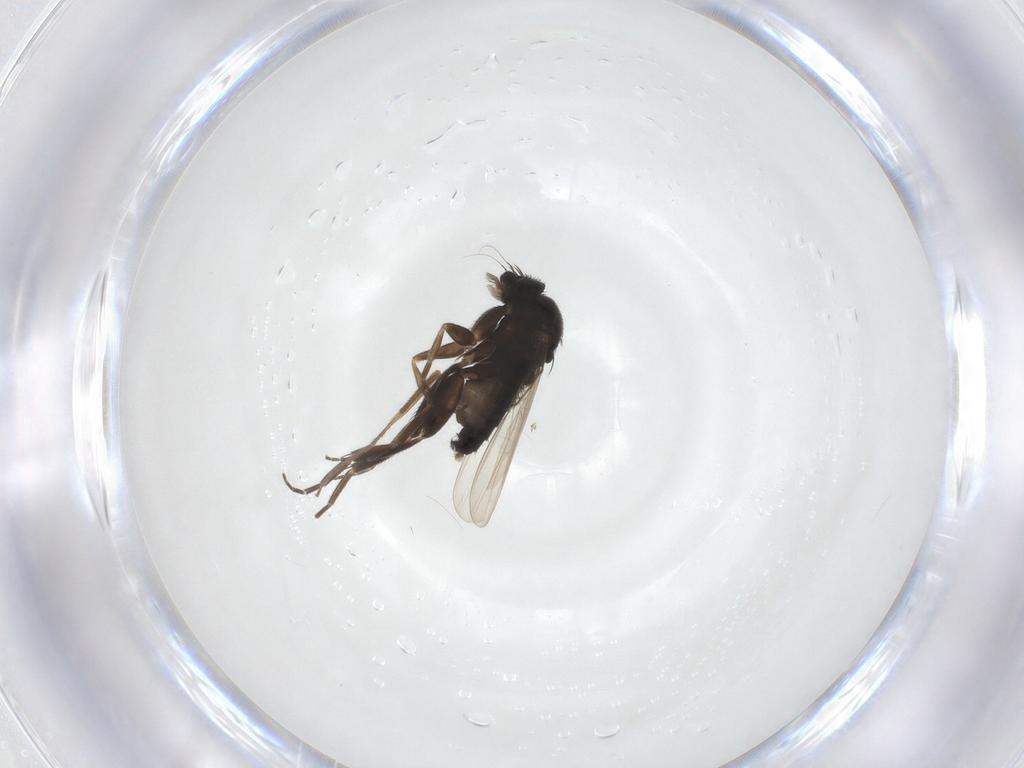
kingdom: Animalia
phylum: Arthropoda
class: Insecta
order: Diptera
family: Phoridae
